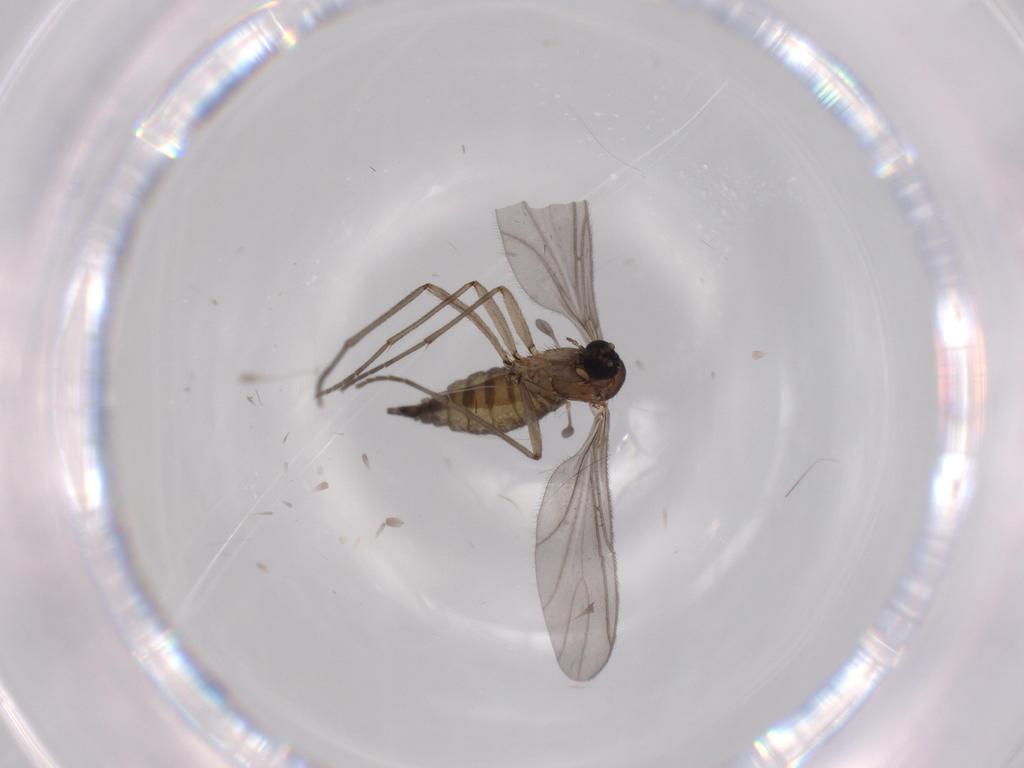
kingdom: Animalia
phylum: Arthropoda
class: Insecta
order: Diptera
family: Sciaridae
